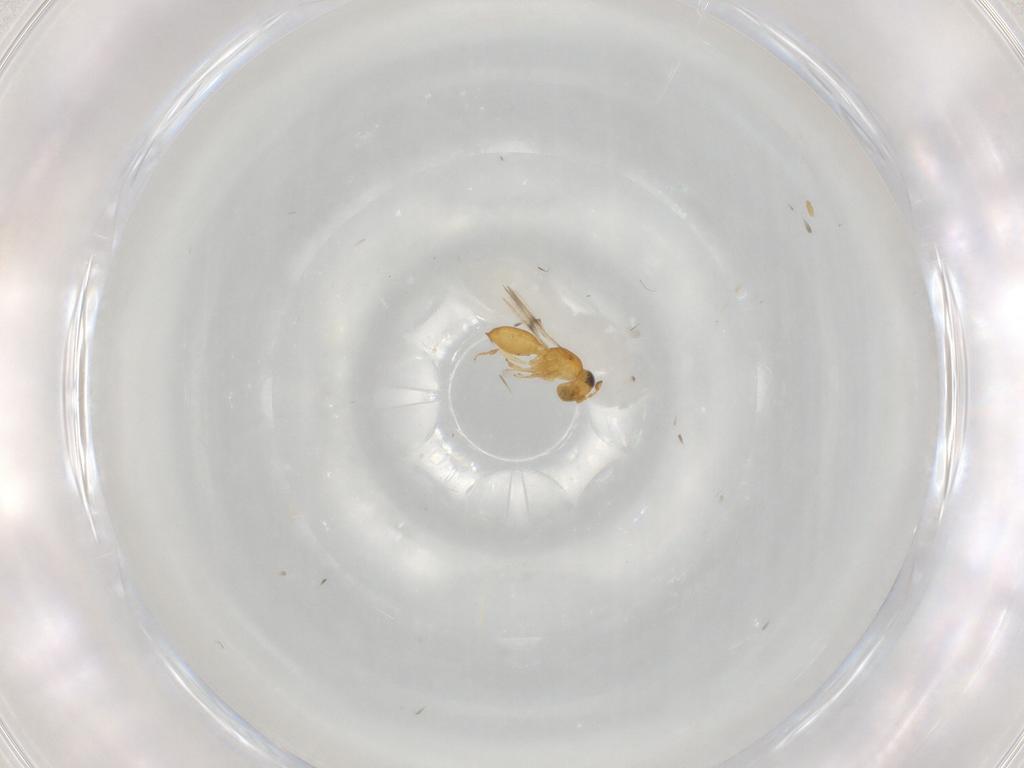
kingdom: Animalia
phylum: Arthropoda
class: Insecta
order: Hymenoptera
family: Scelionidae
